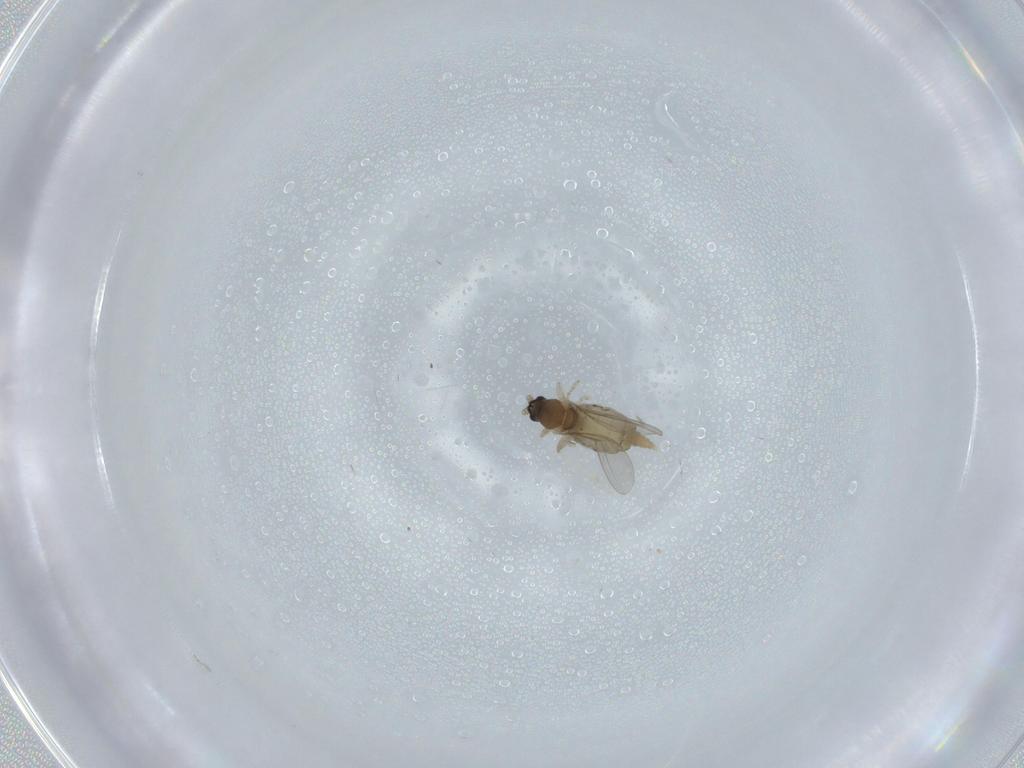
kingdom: Animalia
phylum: Arthropoda
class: Insecta
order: Diptera
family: Cecidomyiidae
